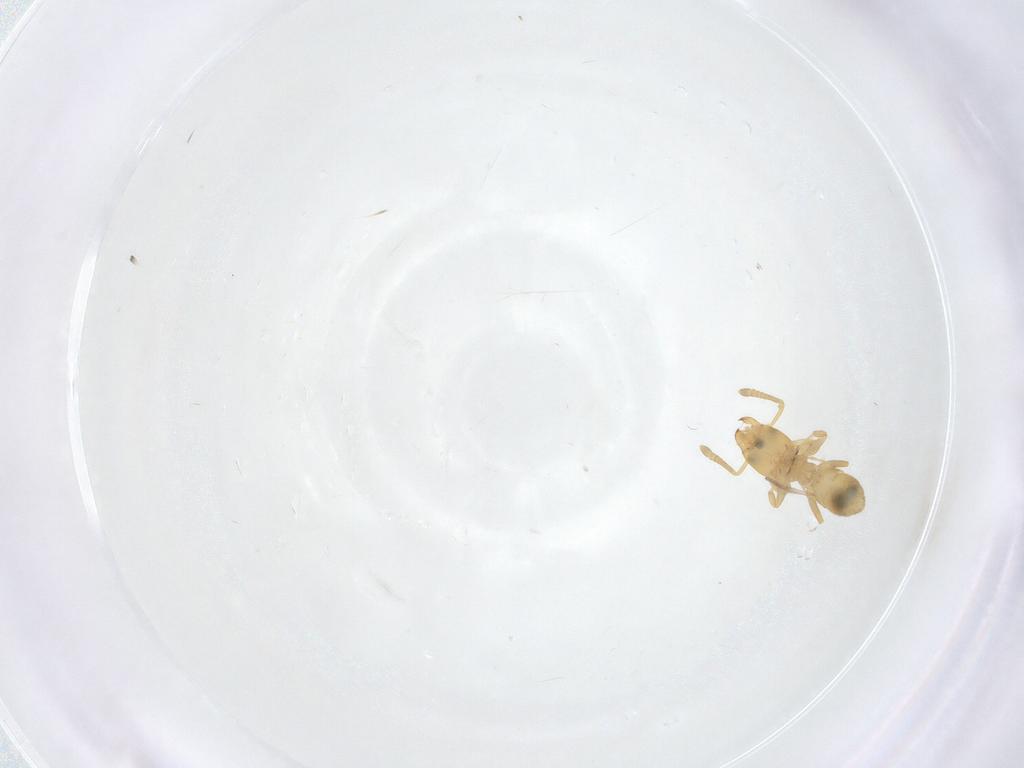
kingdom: Animalia
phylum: Arthropoda
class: Insecta
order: Hymenoptera
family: Formicidae
